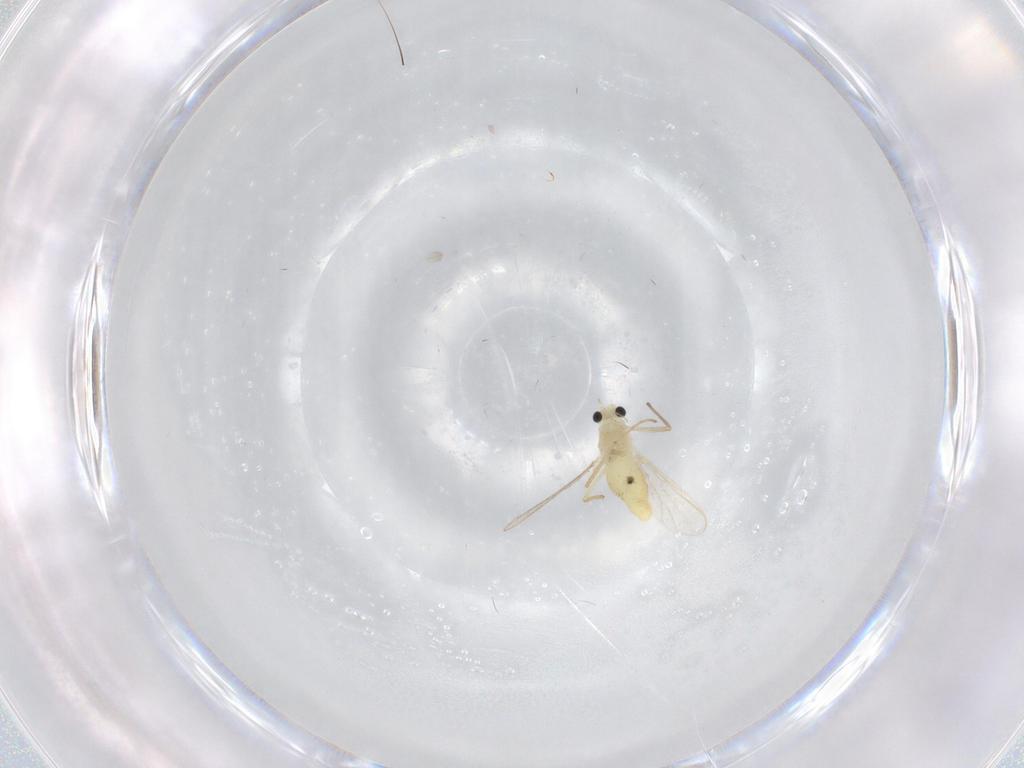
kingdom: Animalia
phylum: Arthropoda
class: Insecta
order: Diptera
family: Chironomidae
